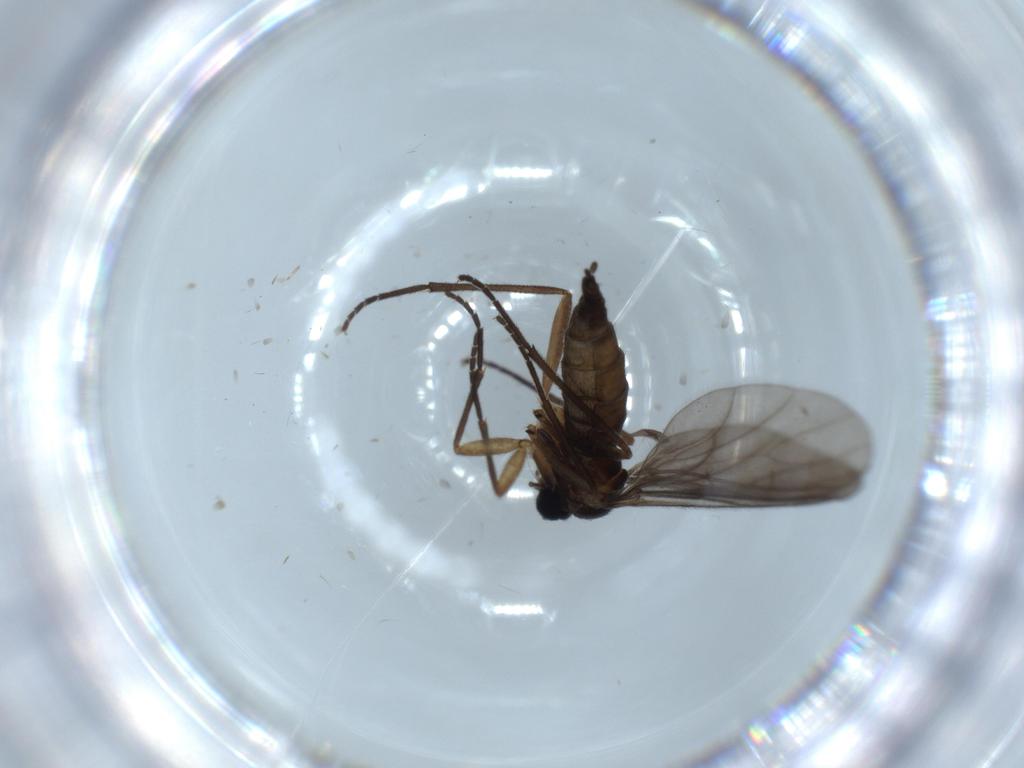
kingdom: Animalia
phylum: Arthropoda
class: Insecta
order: Diptera
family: Sciaridae
